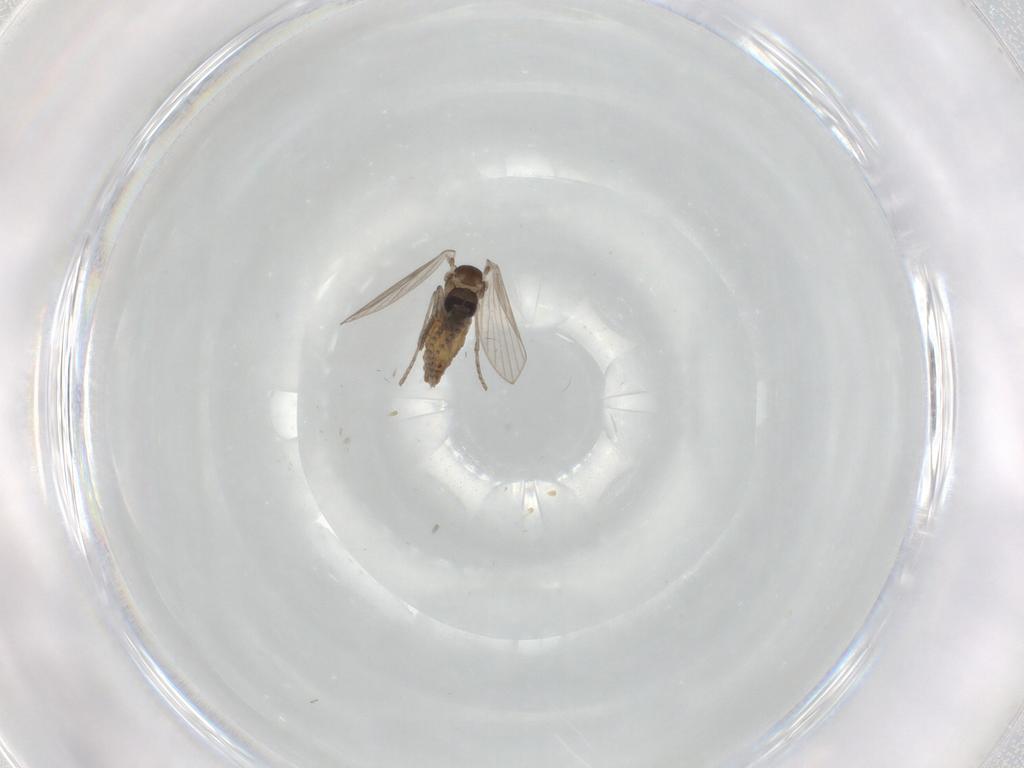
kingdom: Animalia
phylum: Arthropoda
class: Insecta
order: Diptera
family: Psychodidae
